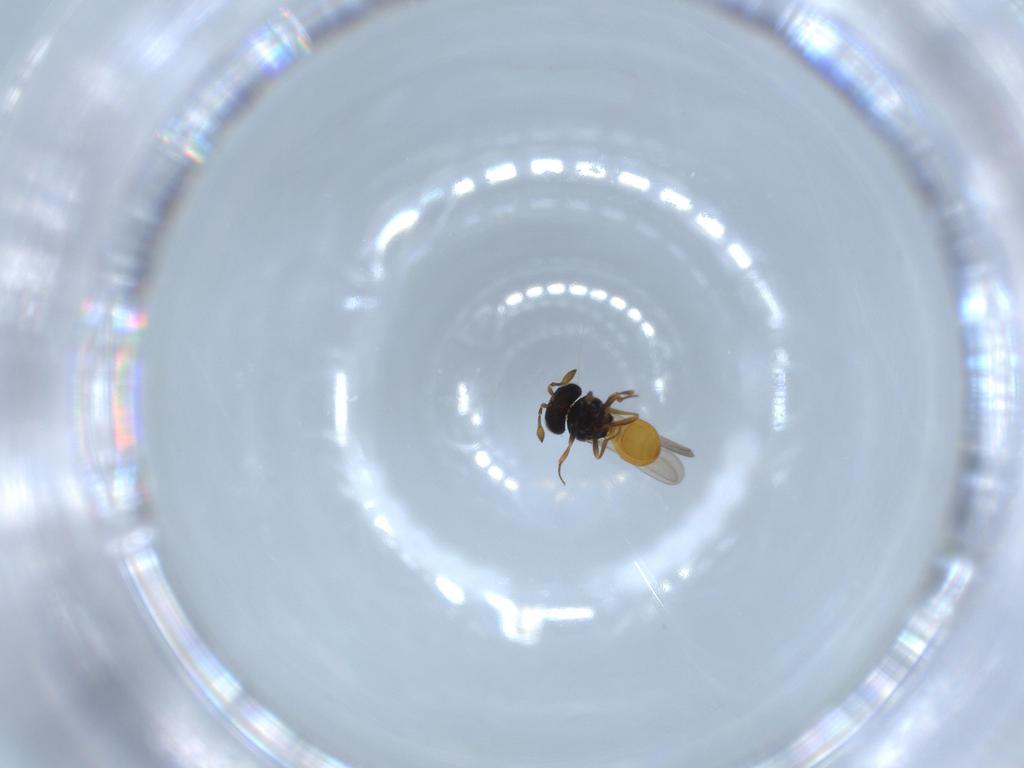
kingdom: Animalia
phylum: Arthropoda
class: Insecta
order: Hymenoptera
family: Scelionidae
